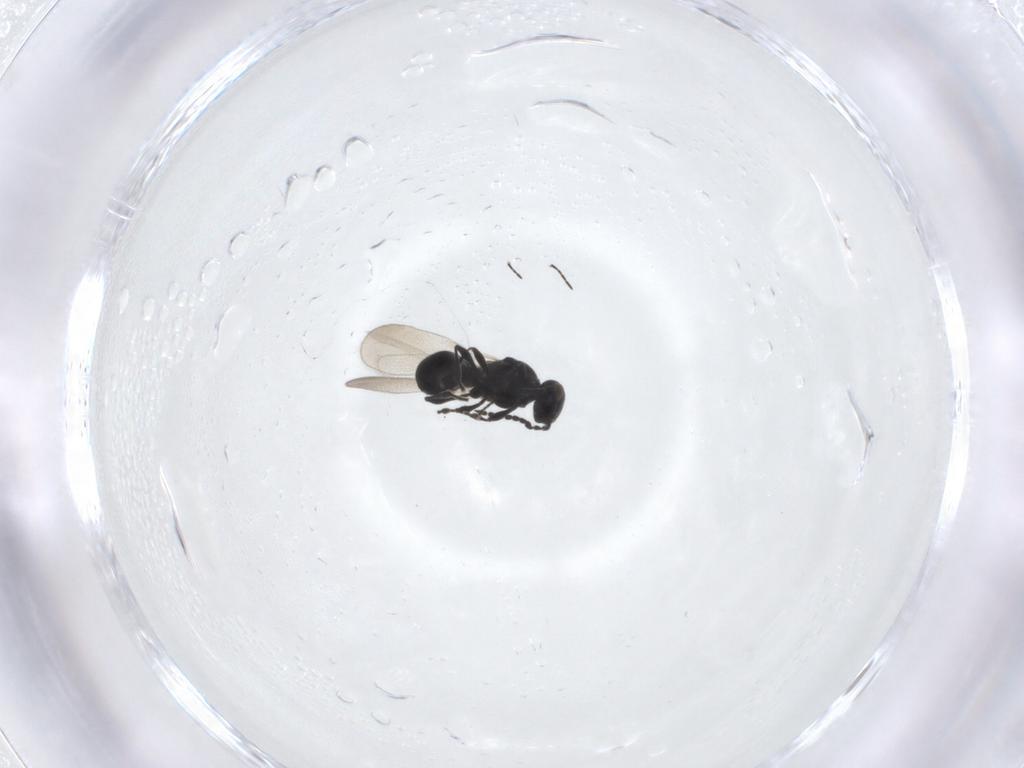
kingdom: Animalia
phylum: Arthropoda
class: Insecta
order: Hymenoptera
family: Platygastridae
